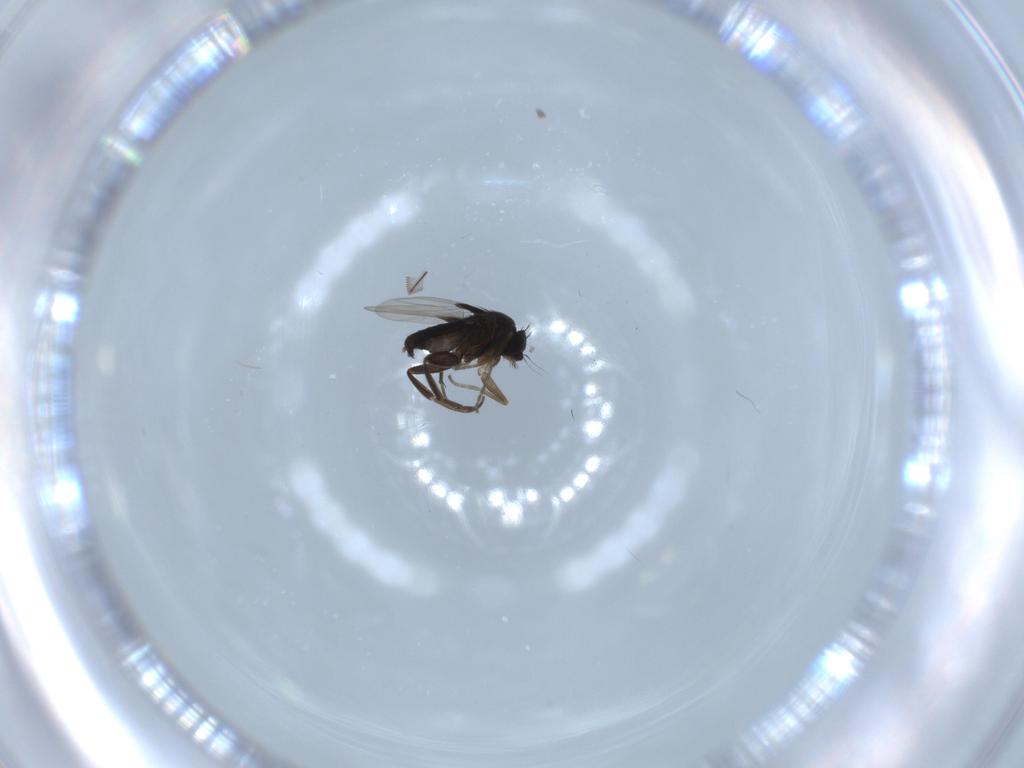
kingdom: Animalia
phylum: Arthropoda
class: Insecta
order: Diptera
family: Phoridae
